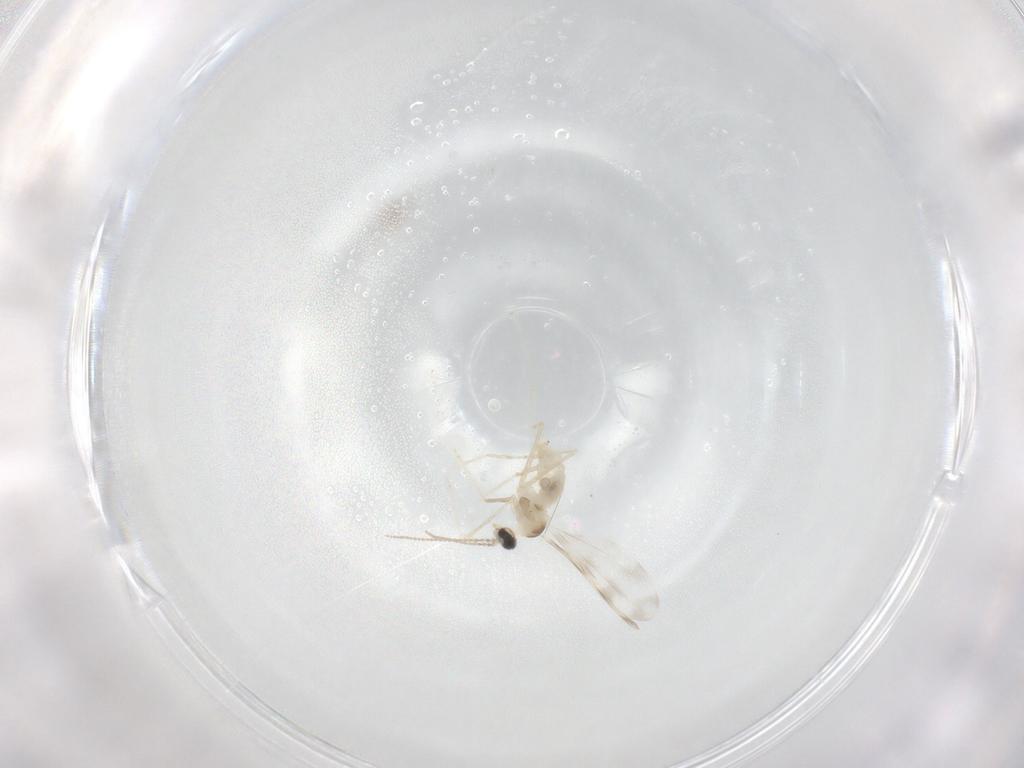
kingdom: Animalia
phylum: Arthropoda
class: Insecta
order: Diptera
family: Ceratopogonidae
